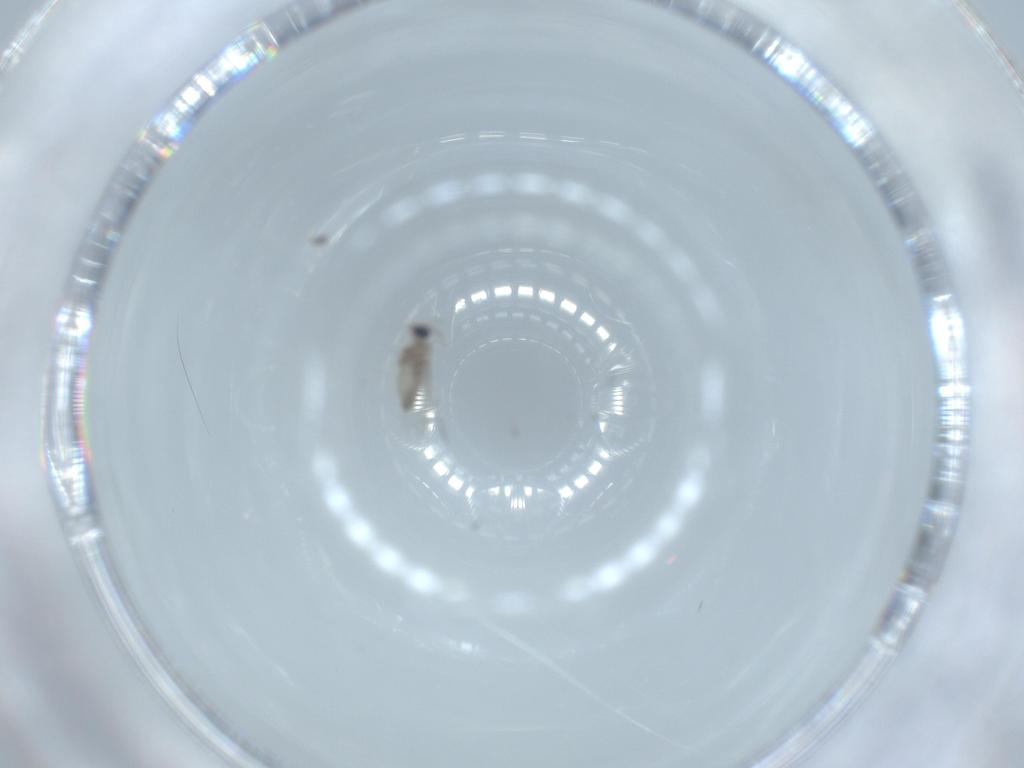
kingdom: Animalia
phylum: Arthropoda
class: Insecta
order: Diptera
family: Cecidomyiidae
